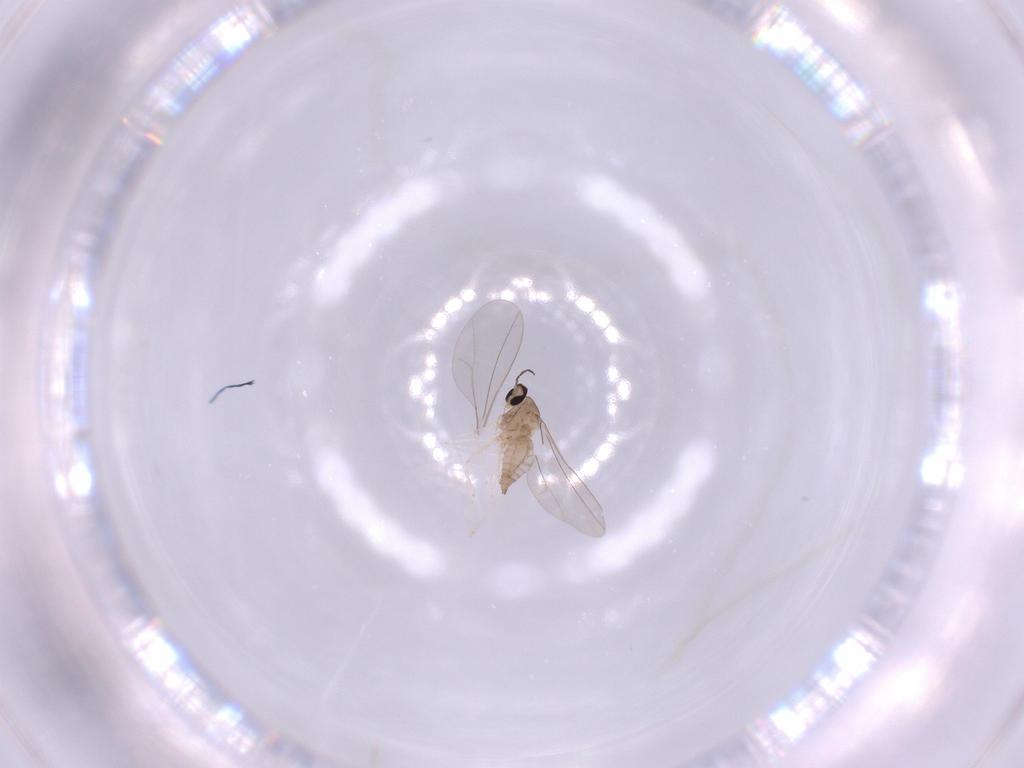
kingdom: Animalia
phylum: Arthropoda
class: Insecta
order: Diptera
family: Cecidomyiidae
